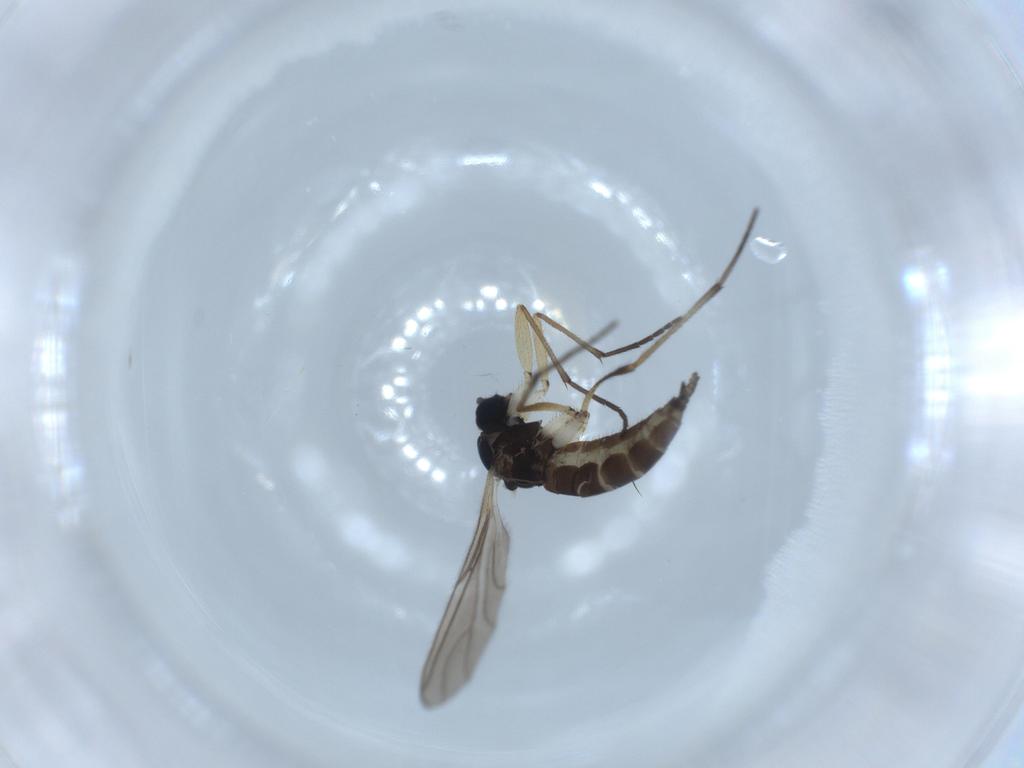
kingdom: Animalia
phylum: Arthropoda
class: Insecta
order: Diptera
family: Sciaridae
